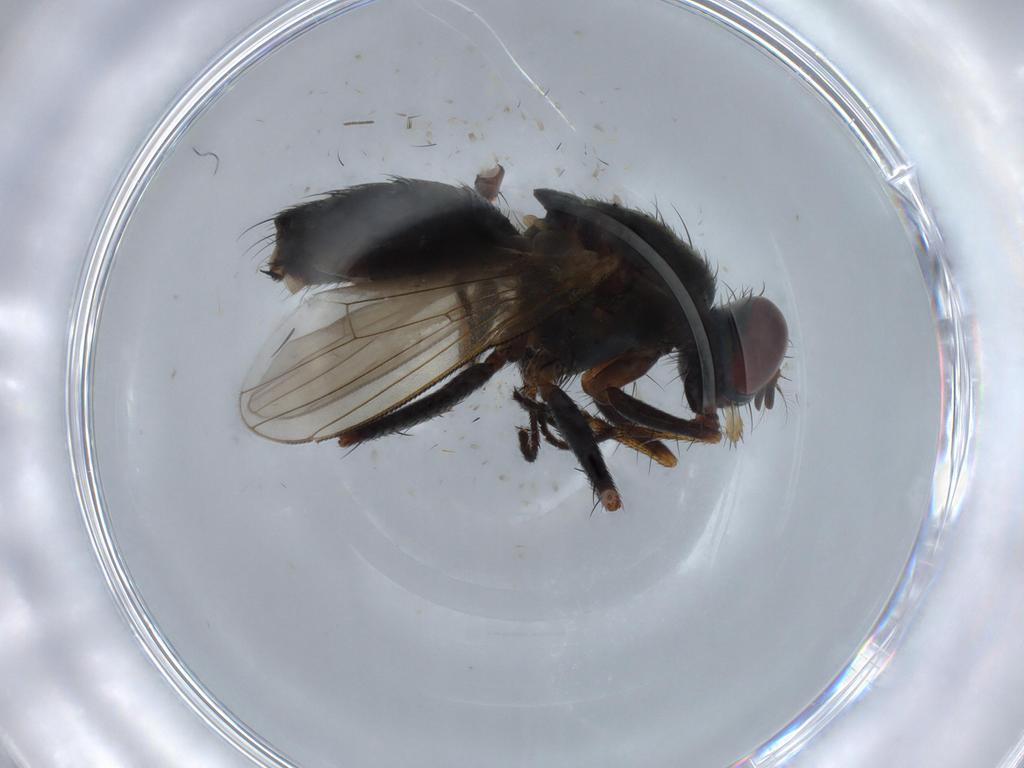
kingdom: Animalia
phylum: Arthropoda
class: Insecta
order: Diptera
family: Muscidae
